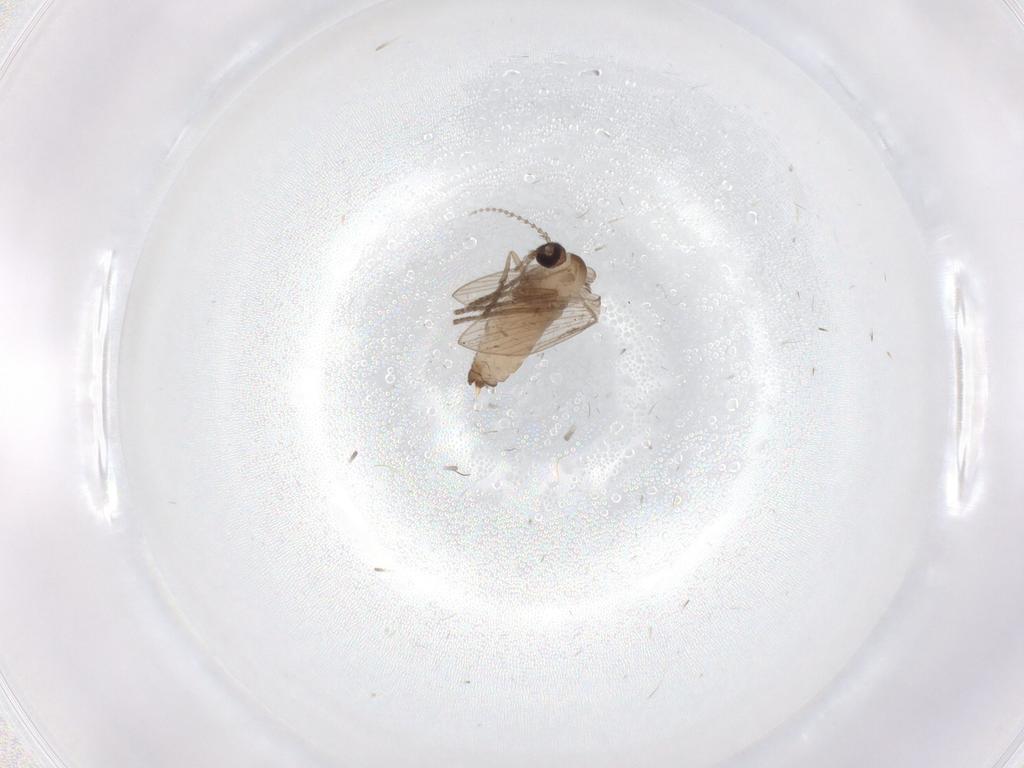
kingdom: Animalia
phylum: Arthropoda
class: Insecta
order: Diptera
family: Psychodidae
